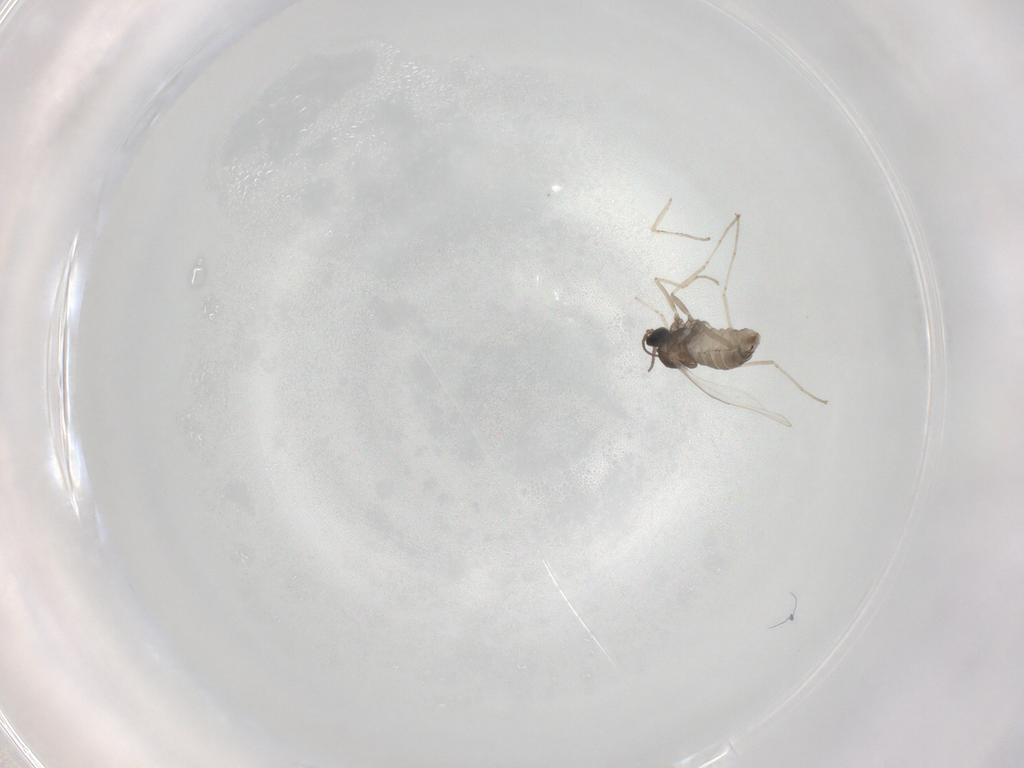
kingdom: Animalia
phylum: Arthropoda
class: Insecta
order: Diptera
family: Cecidomyiidae
